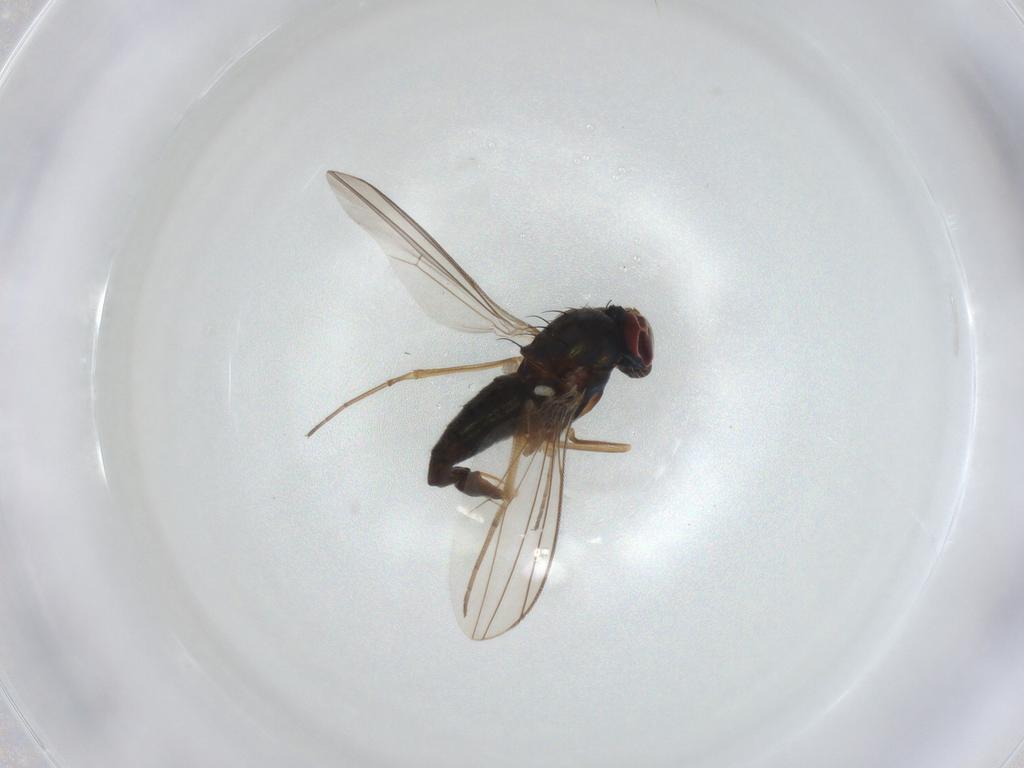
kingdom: Animalia
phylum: Arthropoda
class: Insecta
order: Diptera
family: Dolichopodidae
